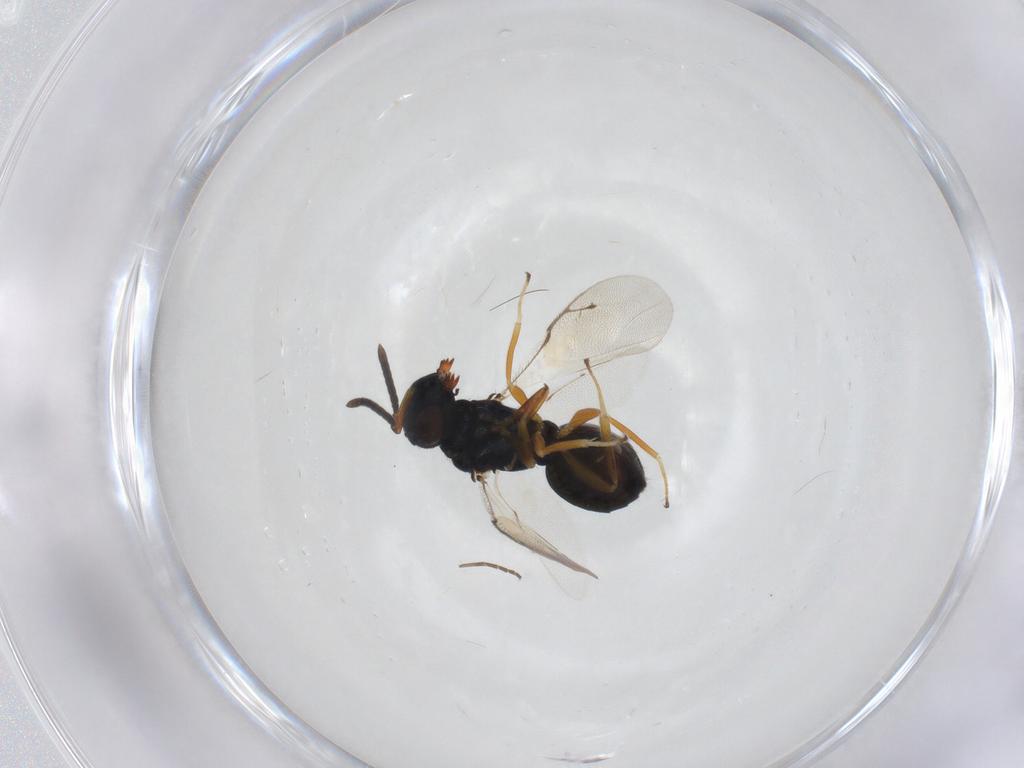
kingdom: Animalia
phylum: Arthropoda
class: Insecta
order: Hymenoptera
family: Pteromalidae
